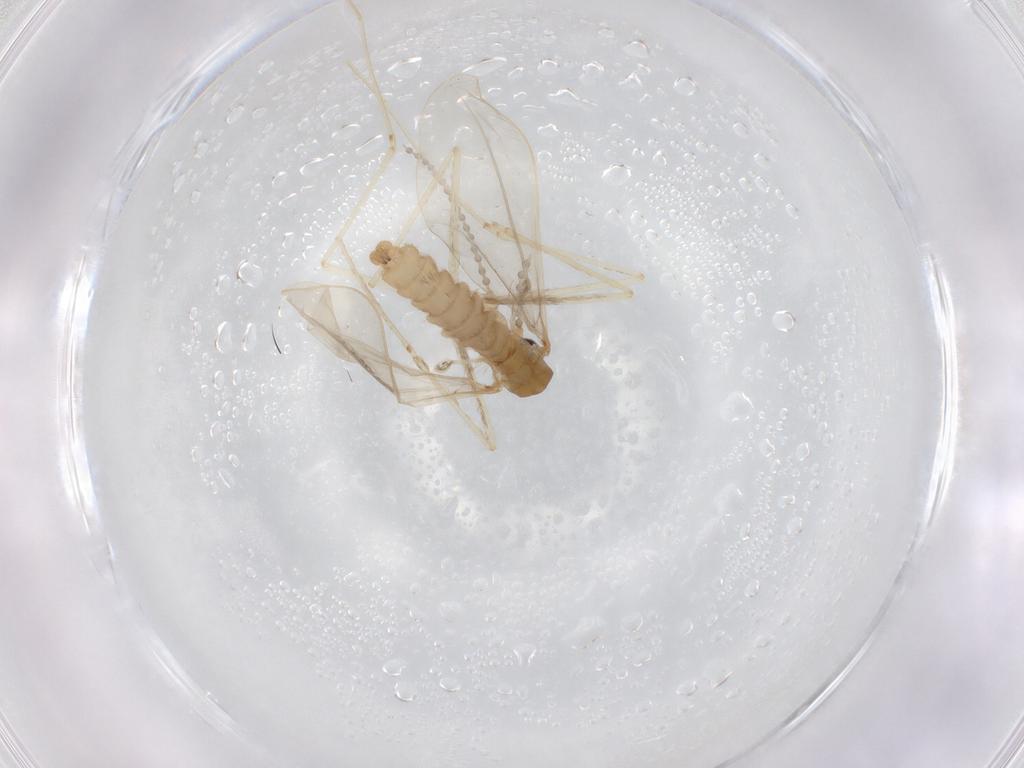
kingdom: Animalia
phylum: Arthropoda
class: Insecta
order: Diptera
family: Cecidomyiidae
